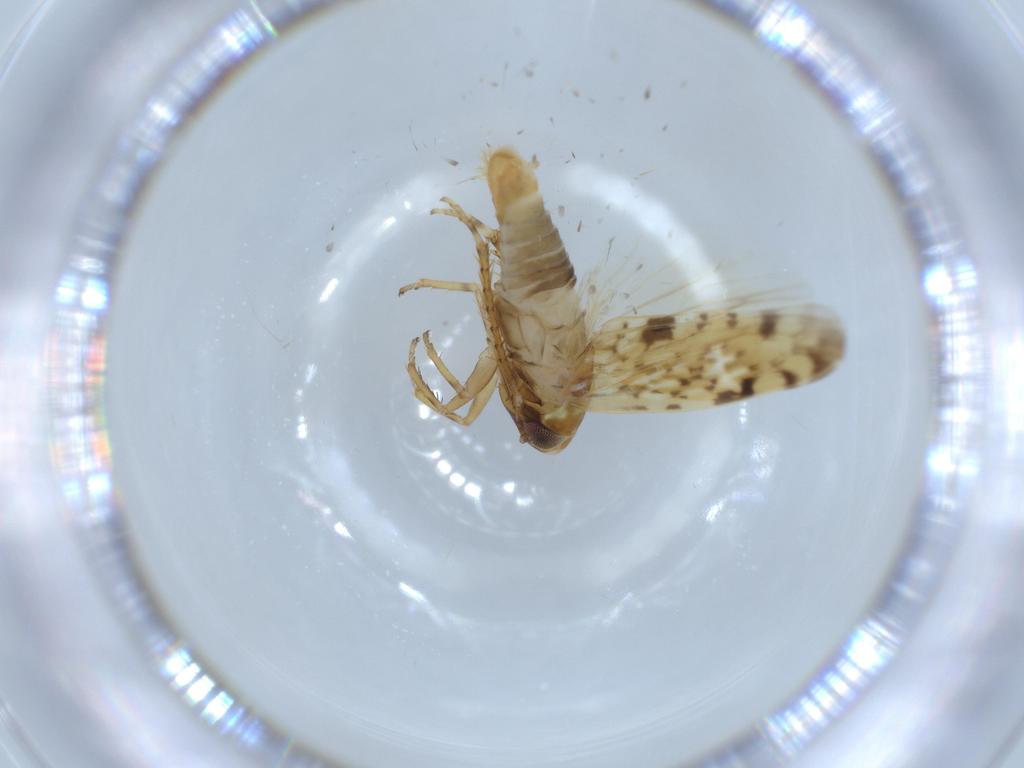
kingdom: Animalia
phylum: Arthropoda
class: Insecta
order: Hemiptera
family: Cicadellidae
